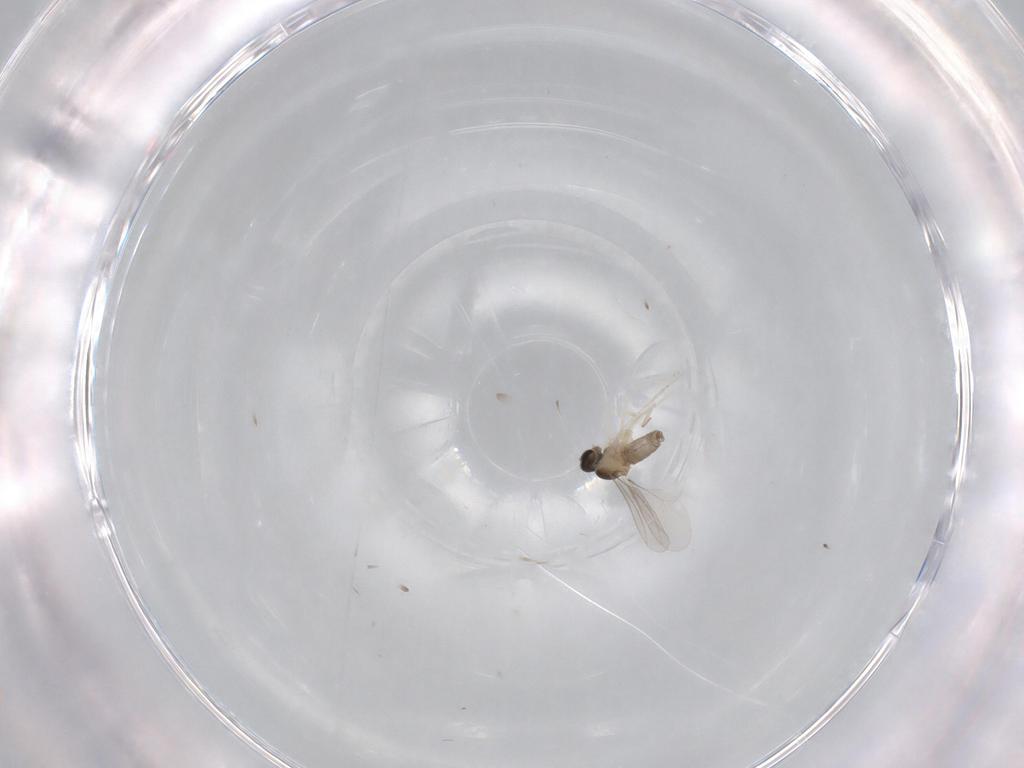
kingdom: Animalia
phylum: Arthropoda
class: Insecta
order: Diptera
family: Cecidomyiidae
